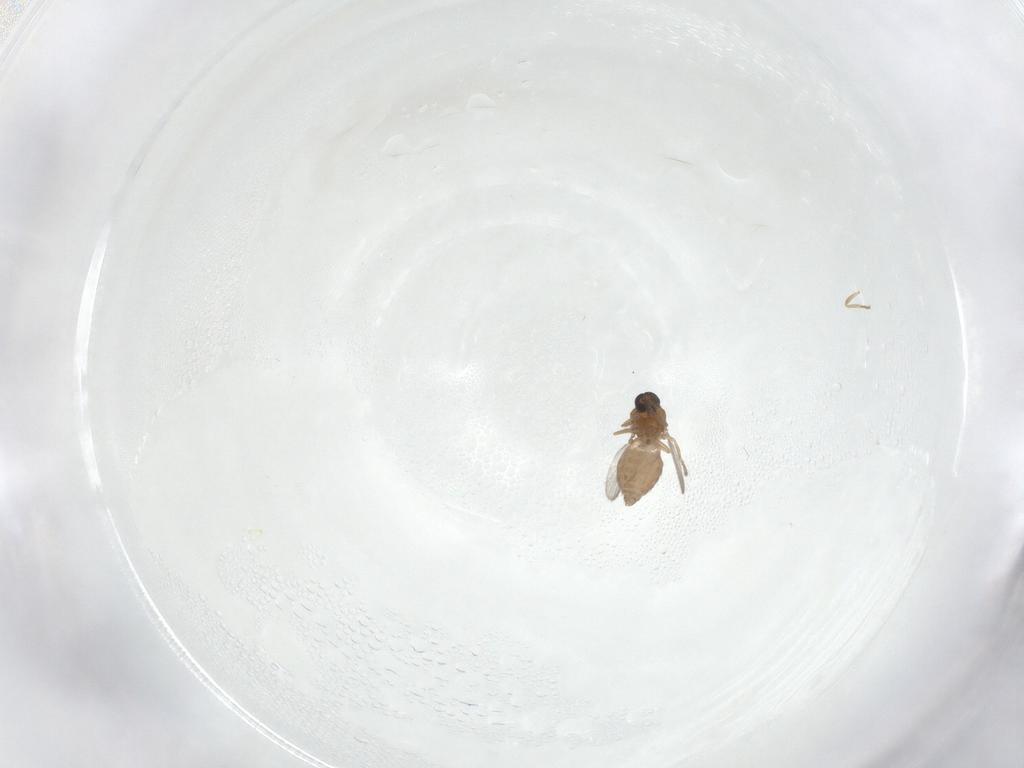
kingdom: Animalia
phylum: Arthropoda
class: Insecta
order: Diptera
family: Ceratopogonidae
